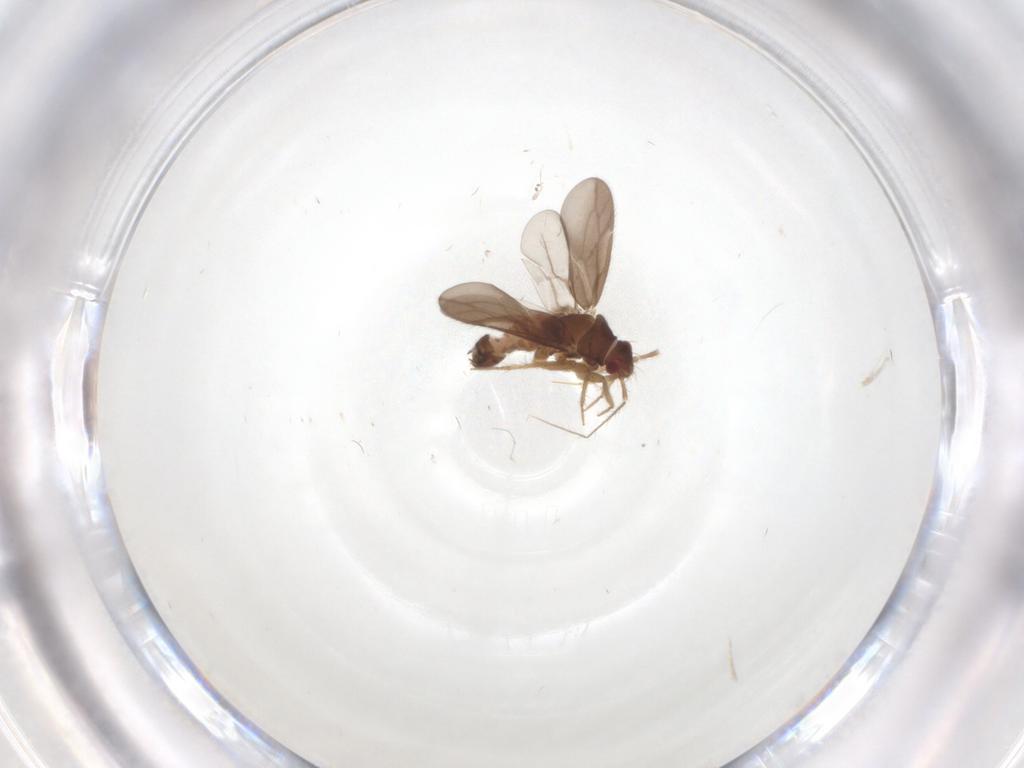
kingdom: Animalia
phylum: Arthropoda
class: Insecta
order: Hemiptera
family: Ceratocombidae
